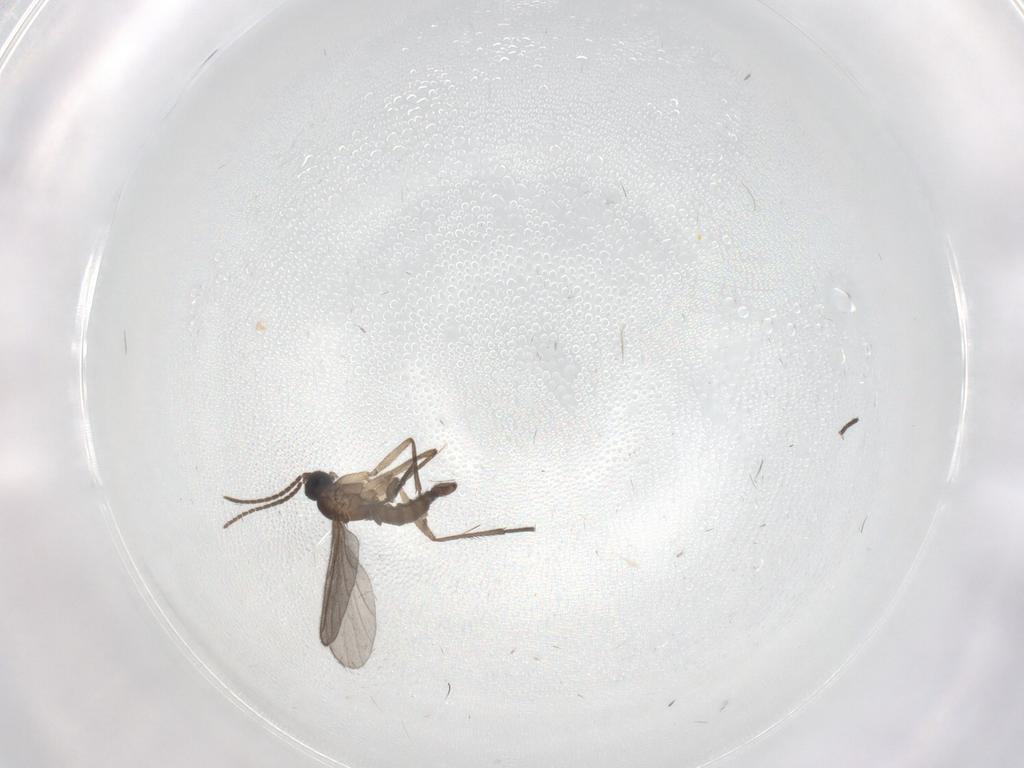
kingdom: Animalia
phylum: Arthropoda
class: Insecta
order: Diptera
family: Sciaridae
